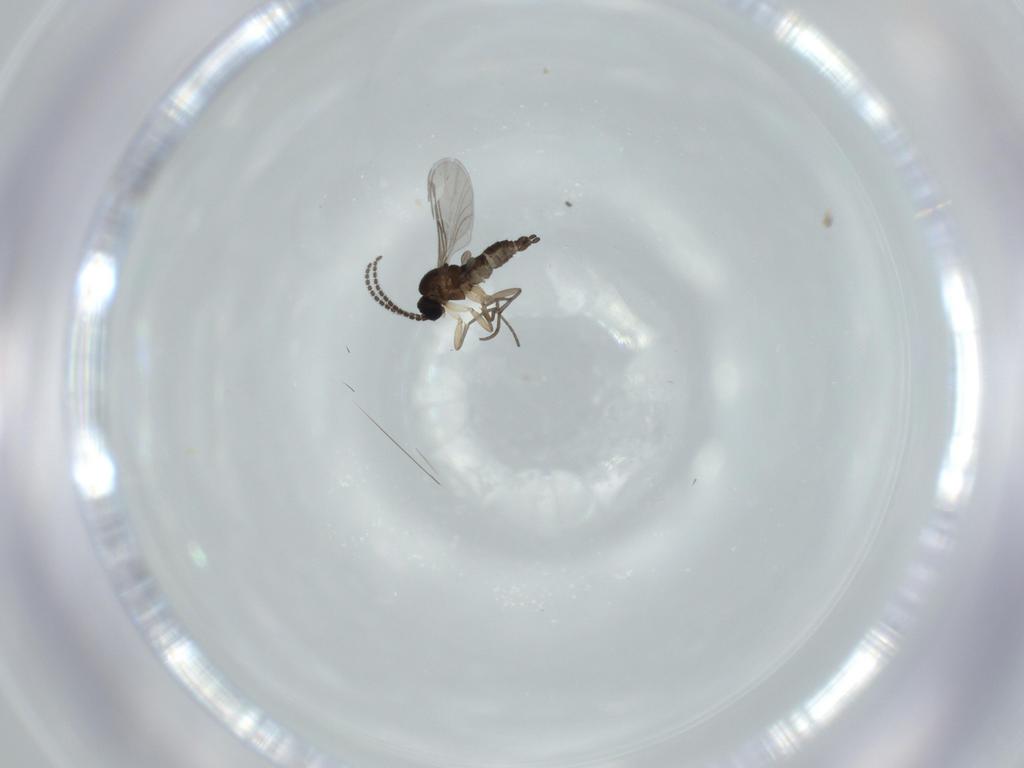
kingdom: Animalia
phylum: Arthropoda
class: Insecta
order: Diptera
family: Sciaridae
